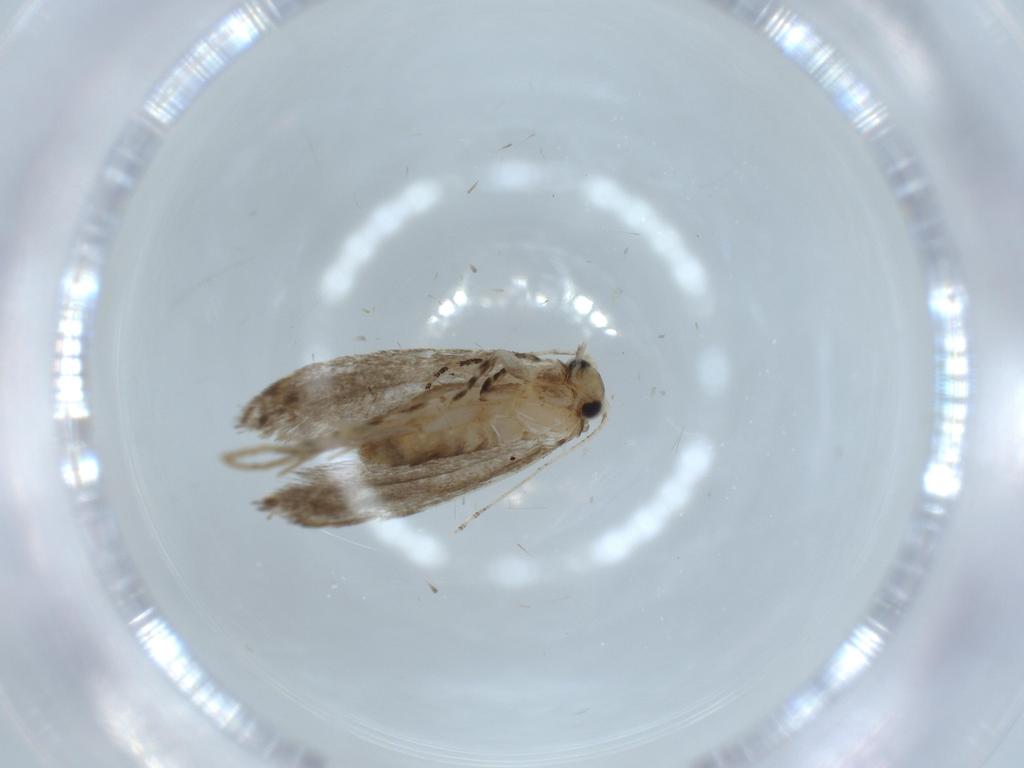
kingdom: Animalia
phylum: Arthropoda
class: Insecta
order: Lepidoptera
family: Tineidae
